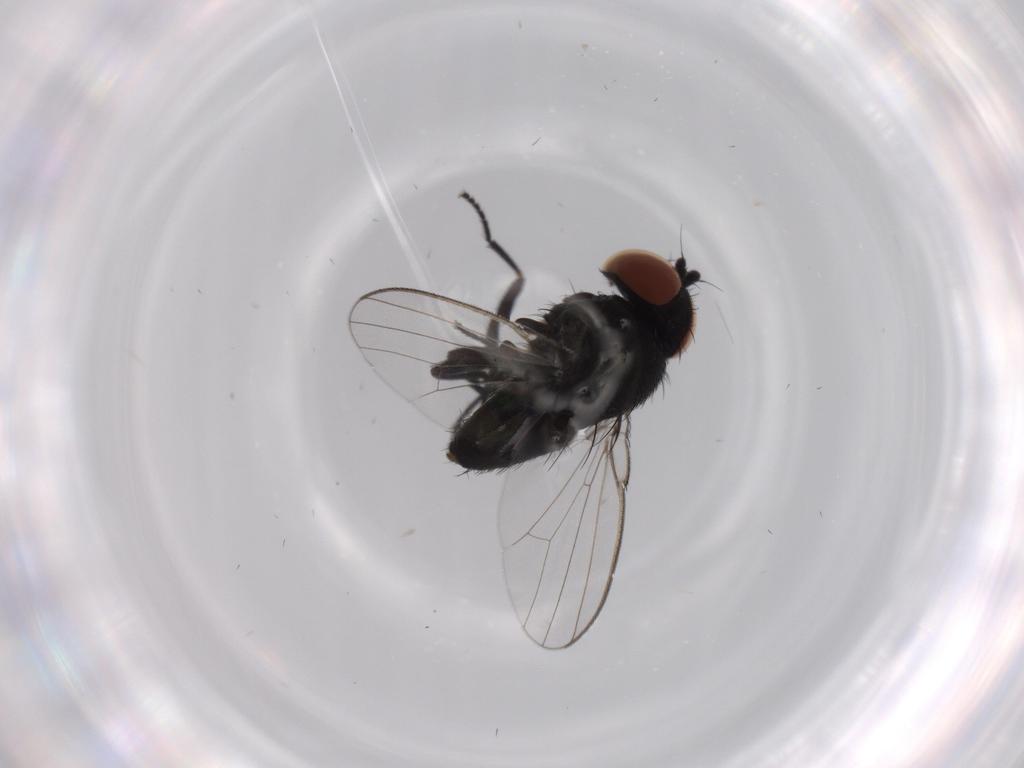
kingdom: Animalia
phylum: Arthropoda
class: Insecta
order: Diptera
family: Milichiidae
